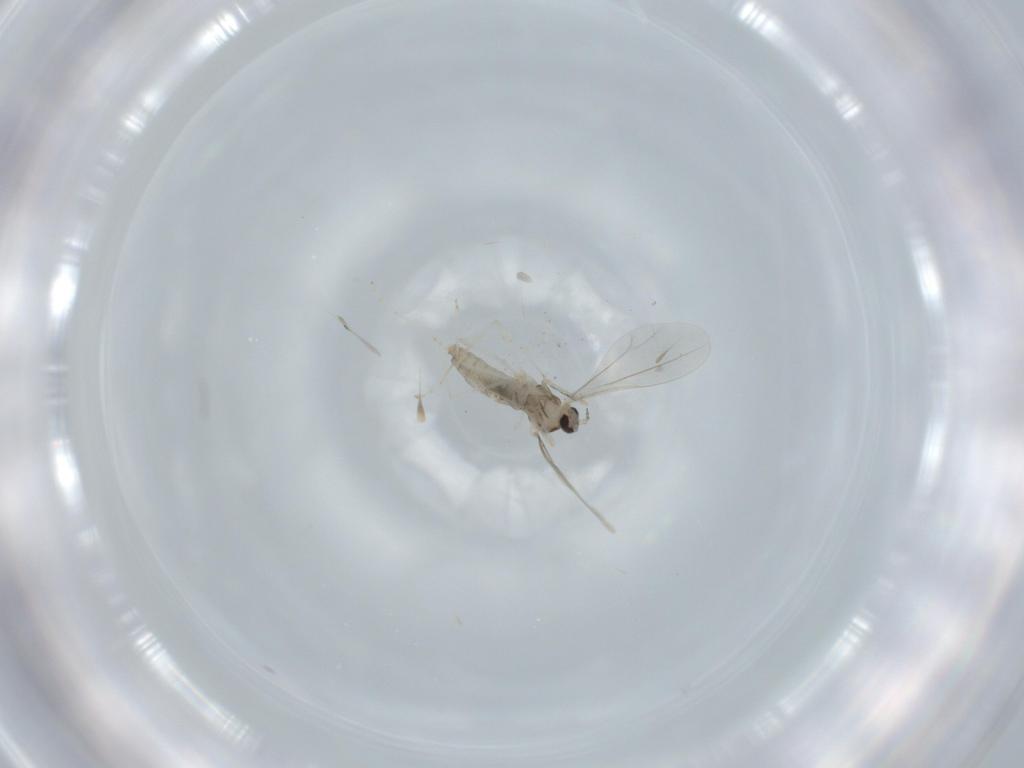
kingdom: Animalia
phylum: Arthropoda
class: Insecta
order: Diptera
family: Cecidomyiidae
